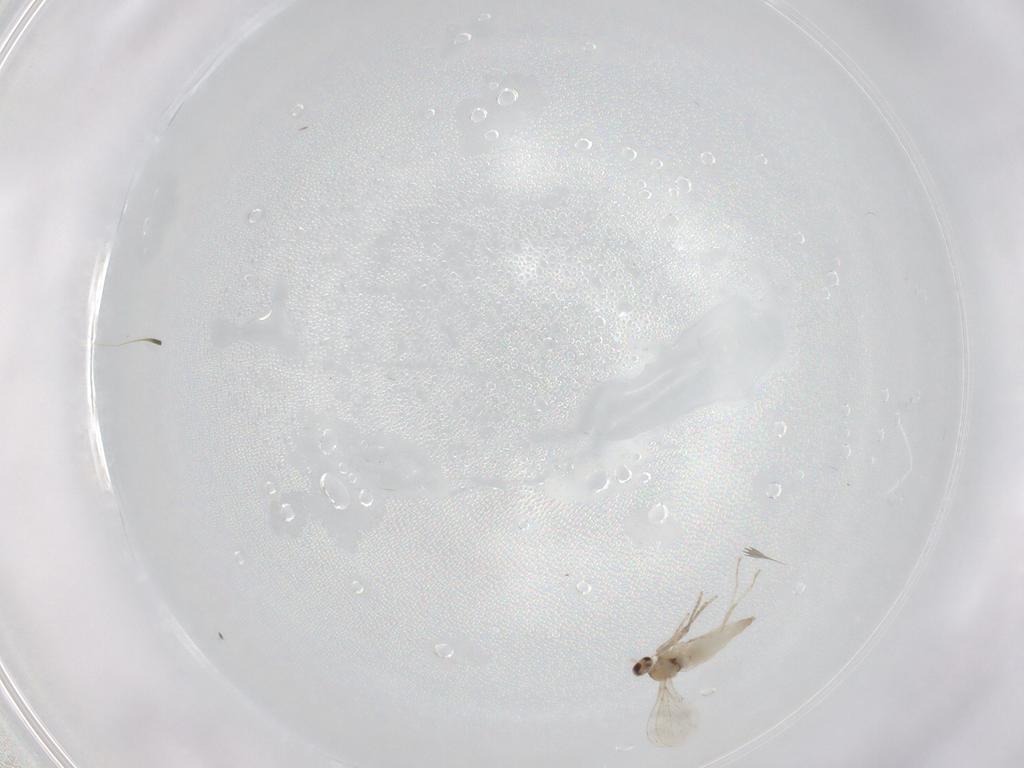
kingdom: Animalia
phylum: Arthropoda
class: Insecta
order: Diptera
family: Cecidomyiidae
